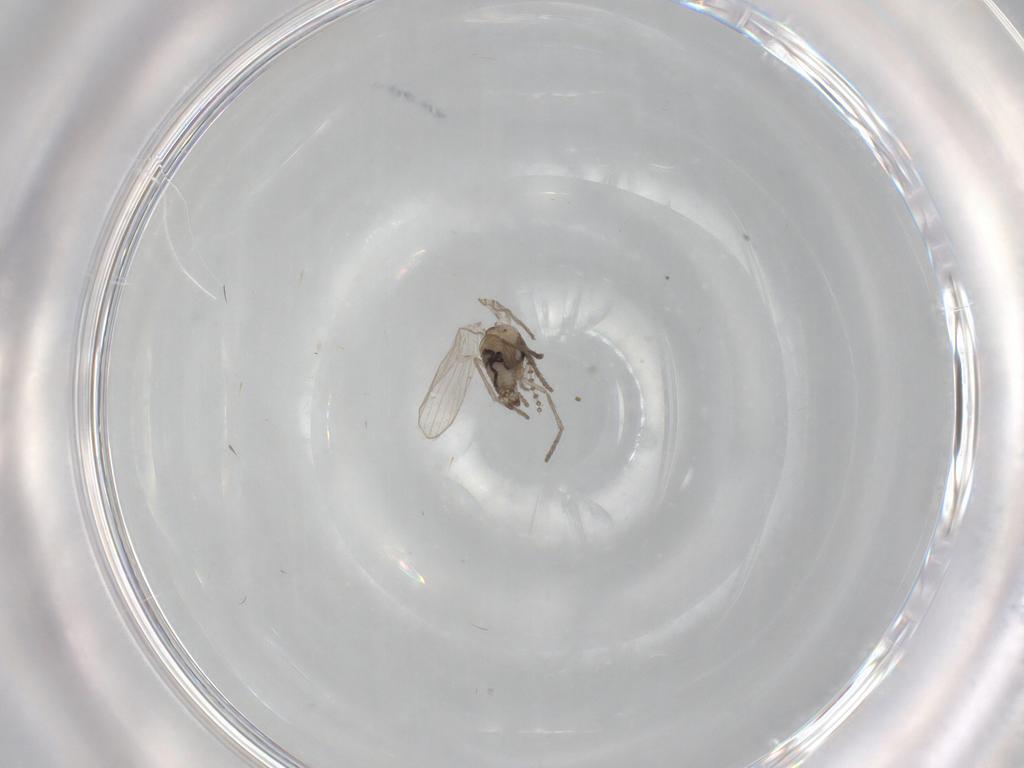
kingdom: Animalia
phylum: Arthropoda
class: Insecta
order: Diptera
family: Psychodidae
